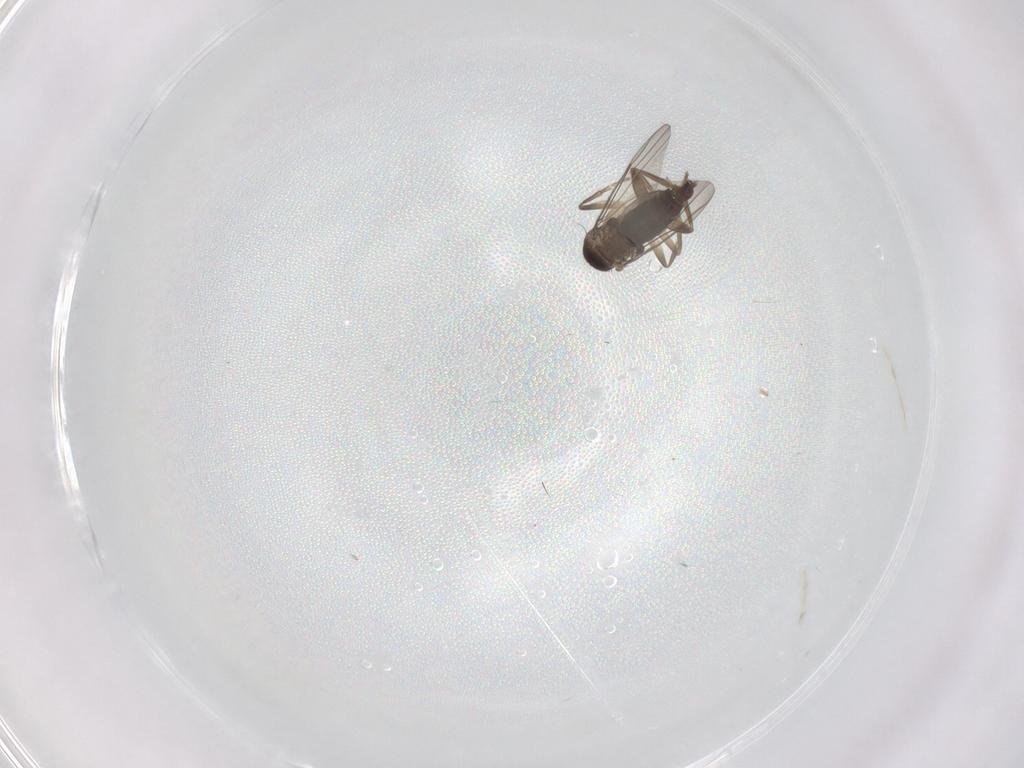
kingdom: Animalia
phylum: Arthropoda
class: Insecta
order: Diptera
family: Phoridae
